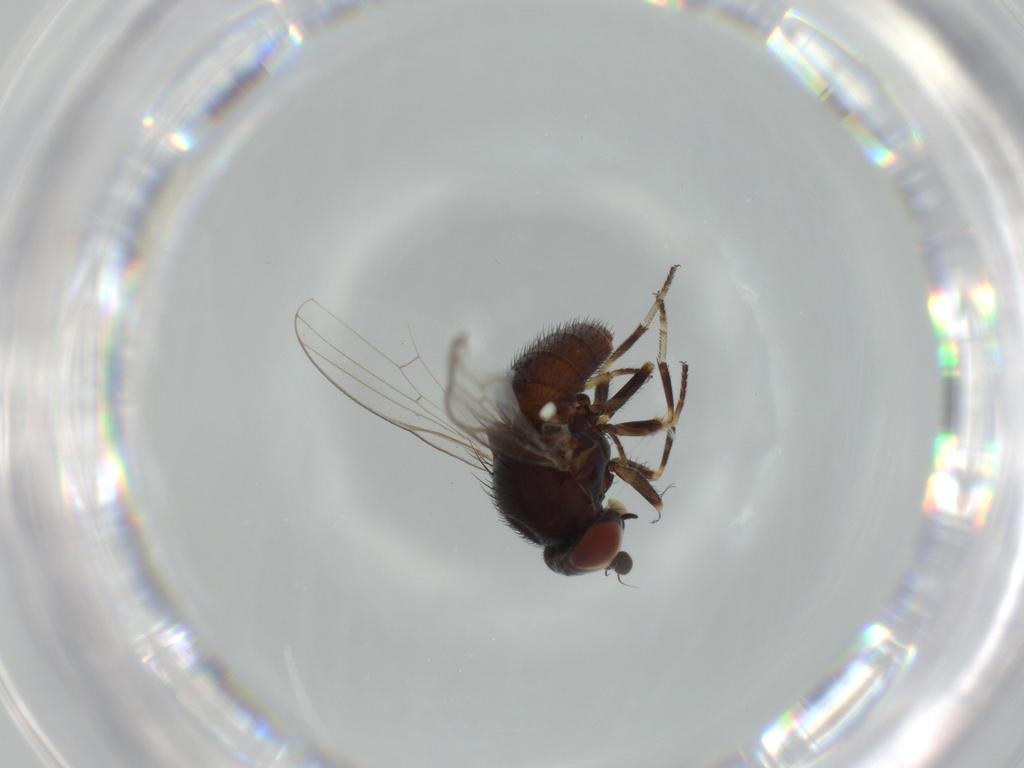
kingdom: Animalia
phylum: Arthropoda
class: Insecta
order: Diptera
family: Chamaemyiidae
